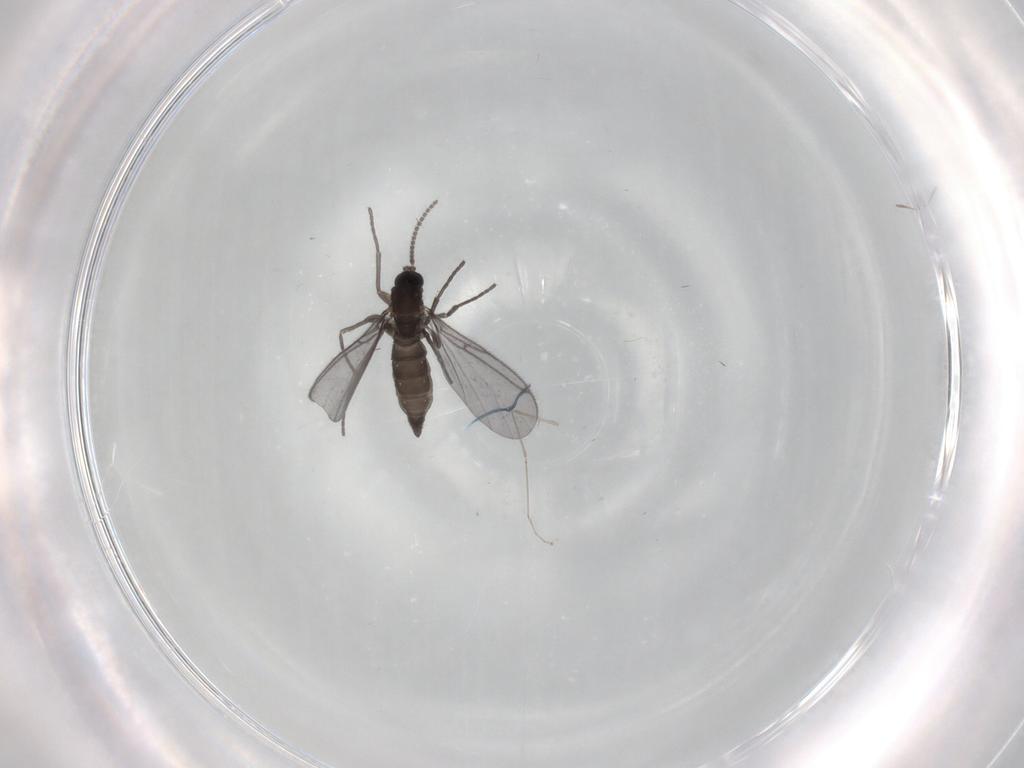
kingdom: Animalia
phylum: Arthropoda
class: Insecta
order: Diptera
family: Cecidomyiidae
